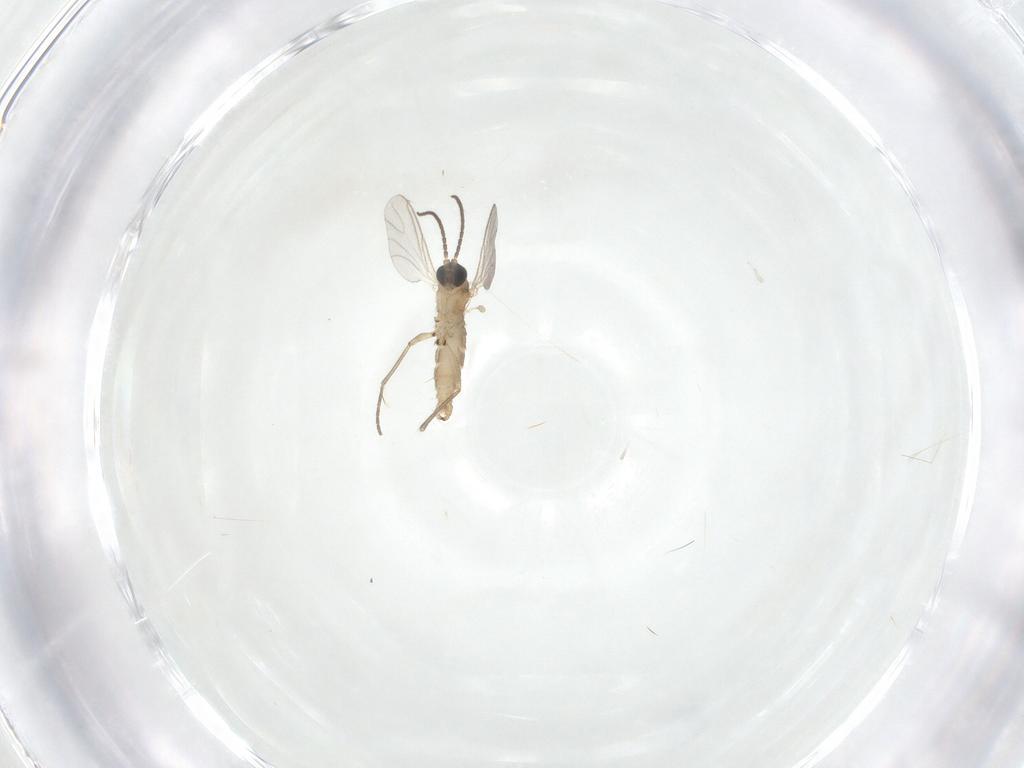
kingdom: Animalia
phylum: Arthropoda
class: Insecta
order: Diptera
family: Sciaridae
